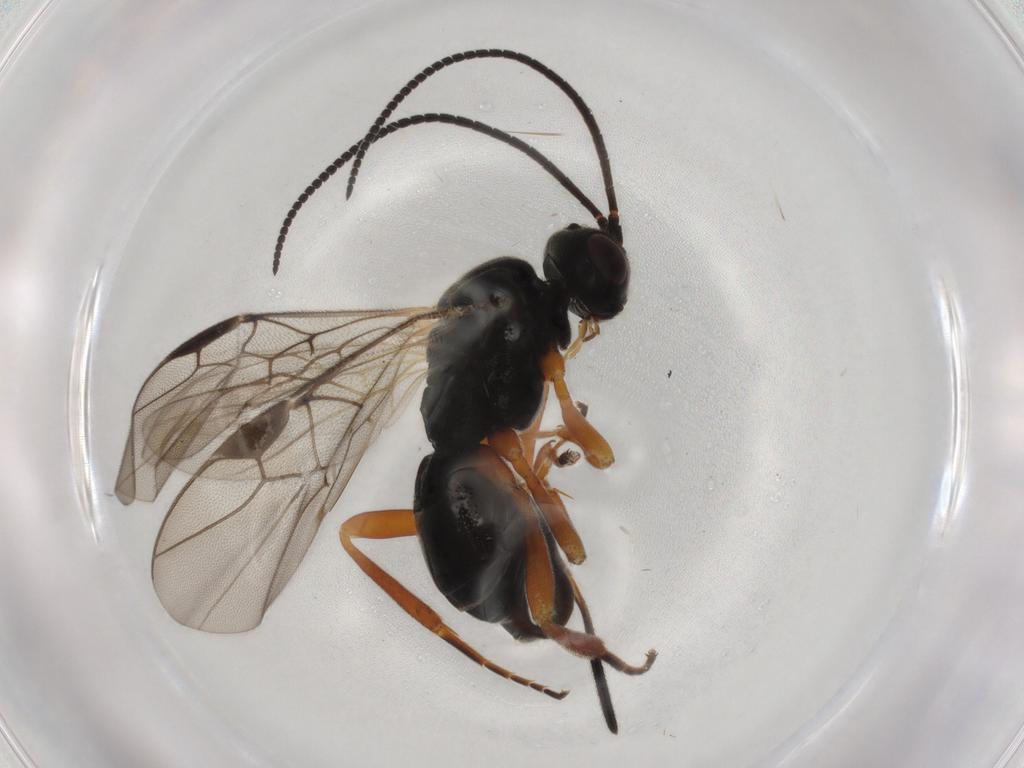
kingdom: Animalia
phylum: Arthropoda
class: Insecta
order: Hymenoptera
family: Braconidae
